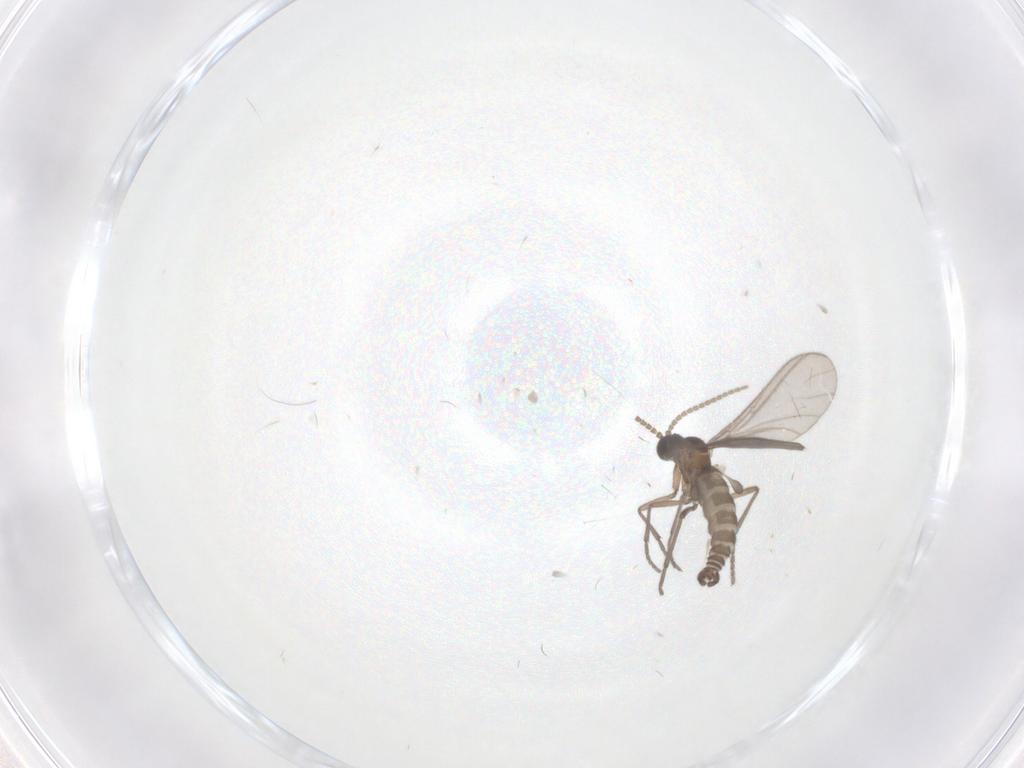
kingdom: Animalia
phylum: Arthropoda
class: Insecta
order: Diptera
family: Sciaridae
